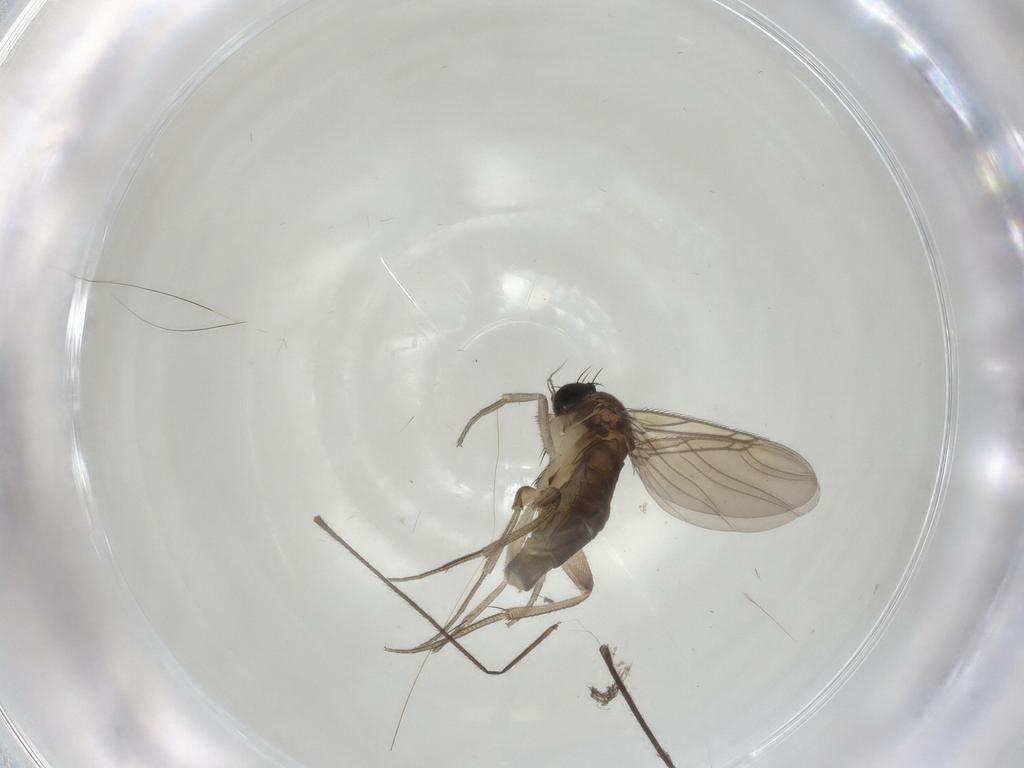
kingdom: Animalia
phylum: Arthropoda
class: Insecta
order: Diptera
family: Phoridae
